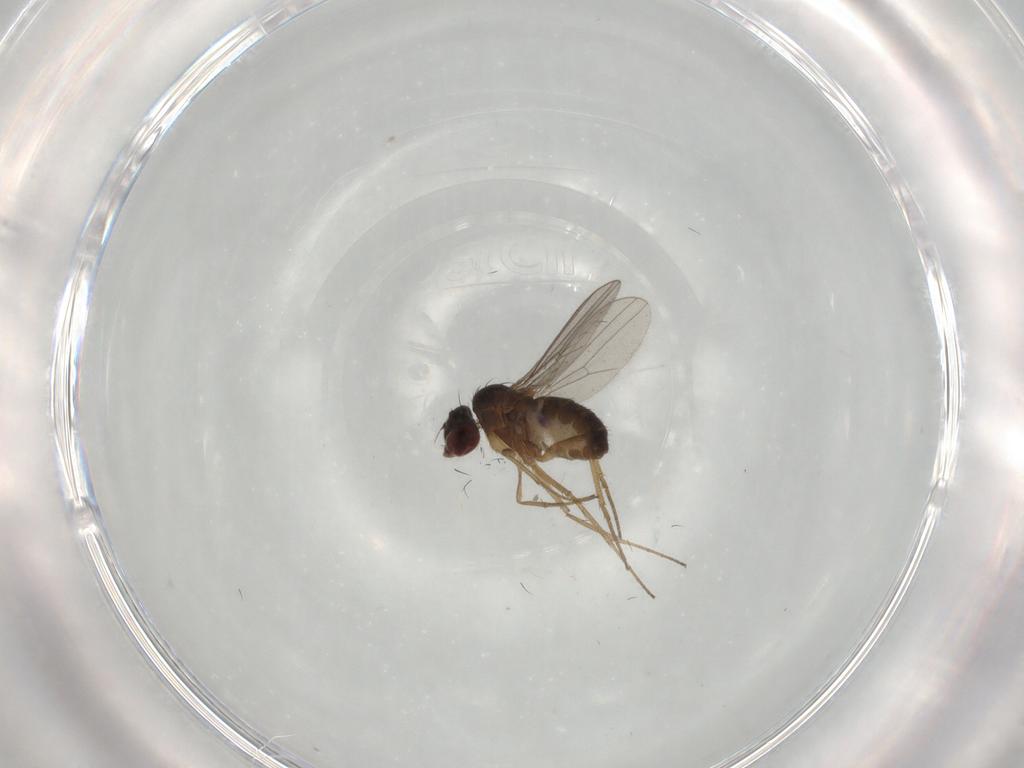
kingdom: Animalia
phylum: Arthropoda
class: Insecta
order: Diptera
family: Dolichopodidae
